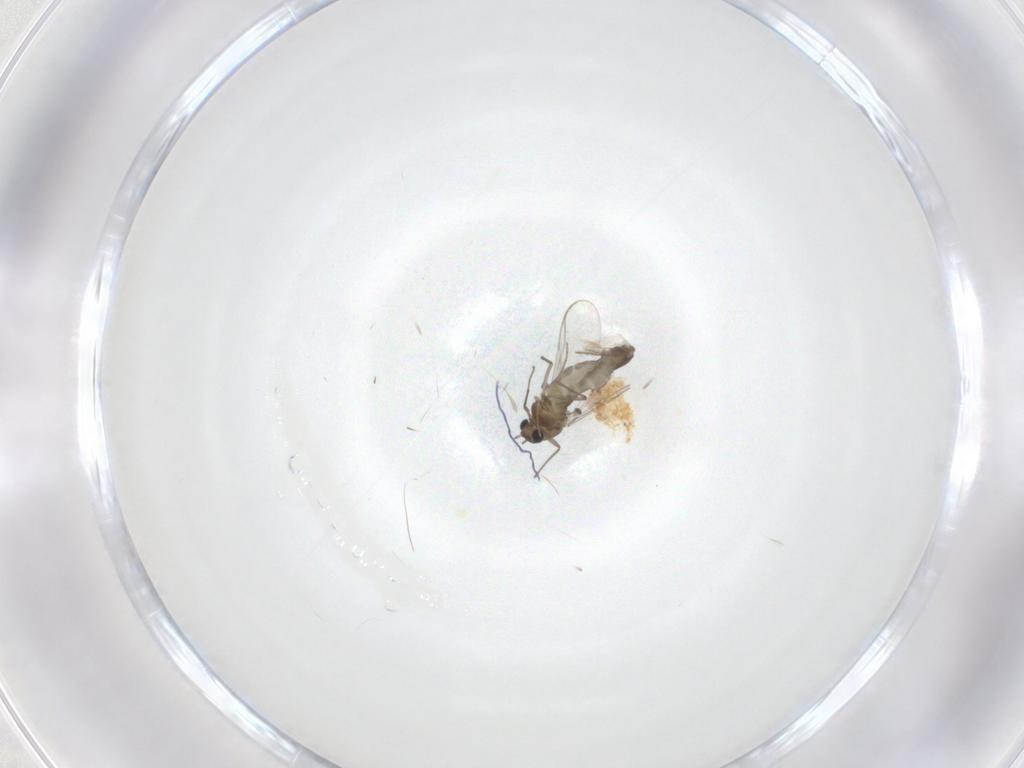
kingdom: Animalia
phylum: Arthropoda
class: Insecta
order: Diptera
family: Chironomidae
